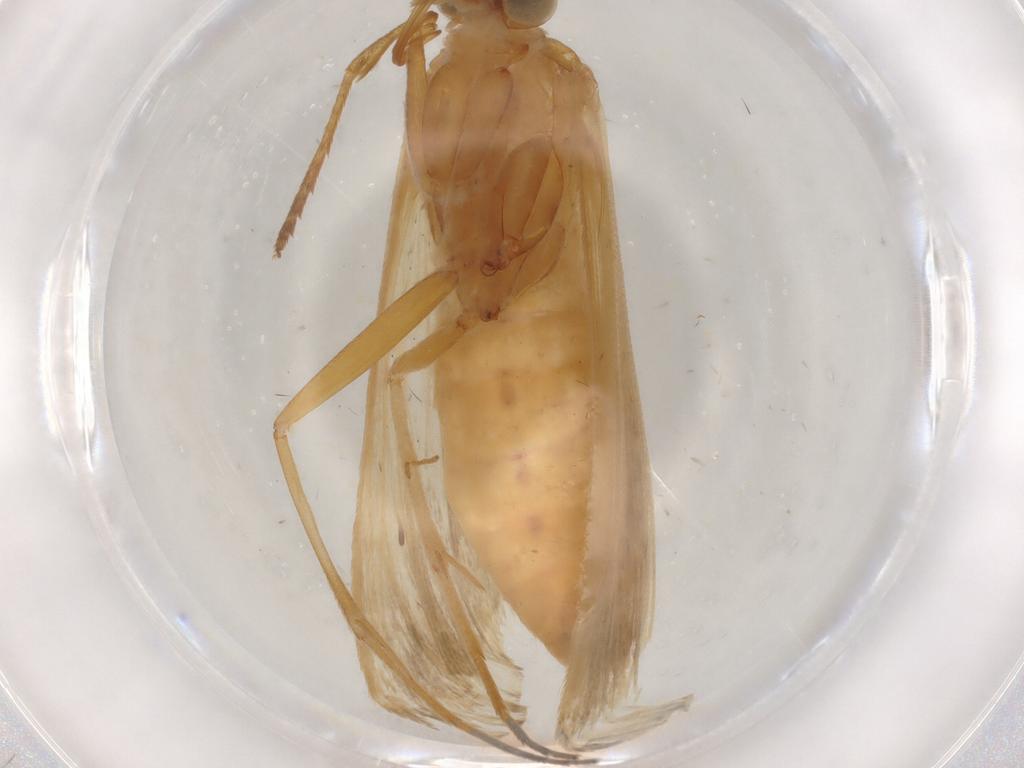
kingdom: Animalia
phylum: Arthropoda
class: Insecta
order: Lepidoptera
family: Nolidae
